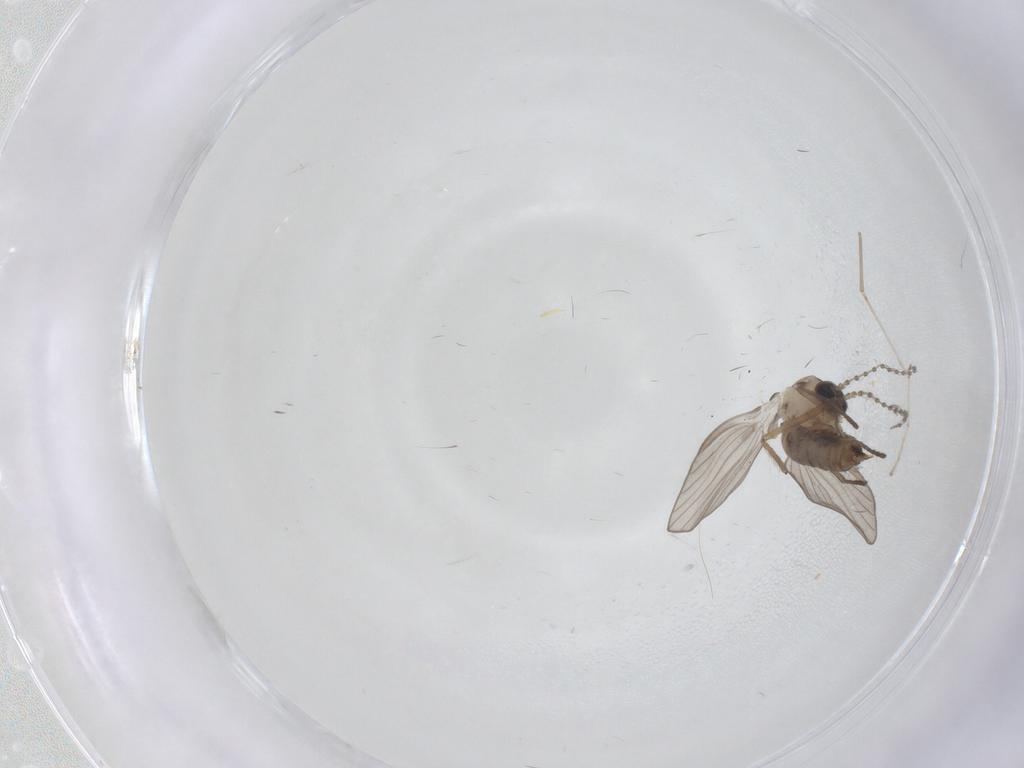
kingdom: Animalia
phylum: Arthropoda
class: Insecta
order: Diptera
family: Psychodidae
